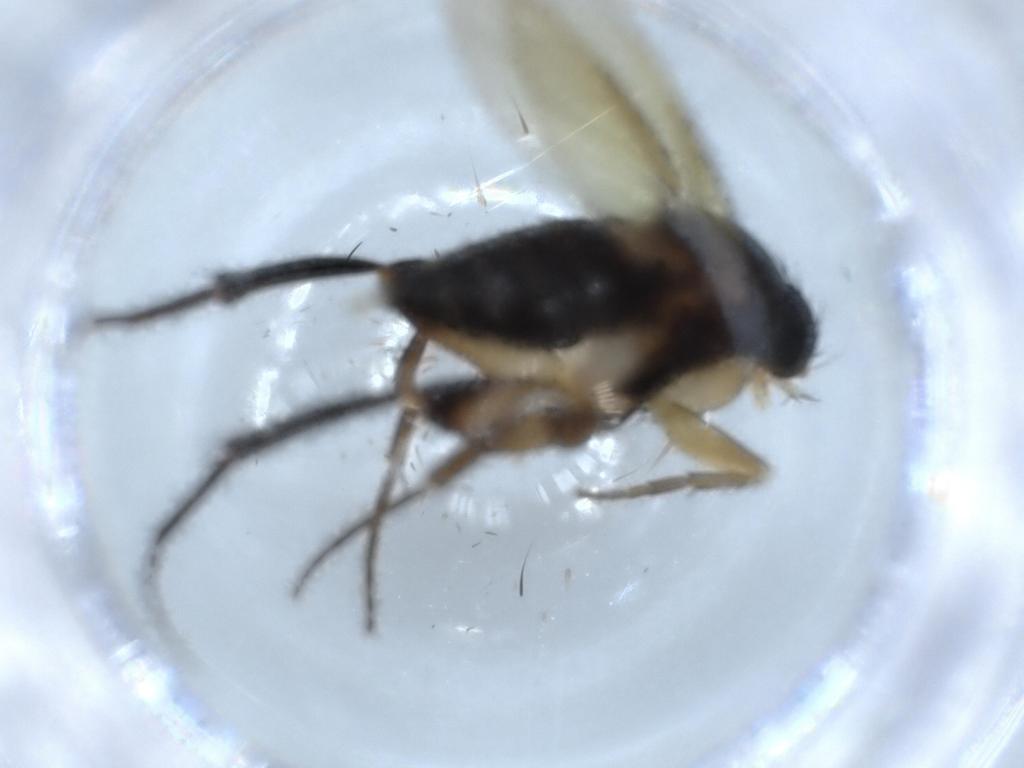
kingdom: Animalia
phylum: Arthropoda
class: Insecta
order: Diptera
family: Phoridae
